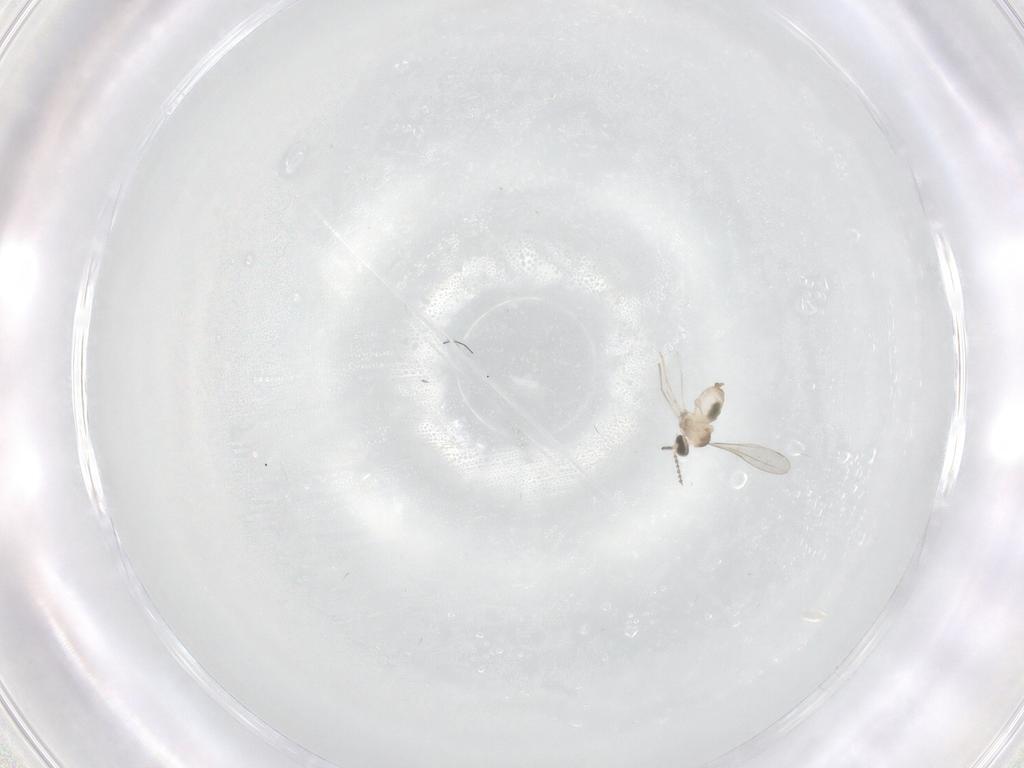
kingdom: Animalia
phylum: Arthropoda
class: Insecta
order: Diptera
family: Cecidomyiidae
